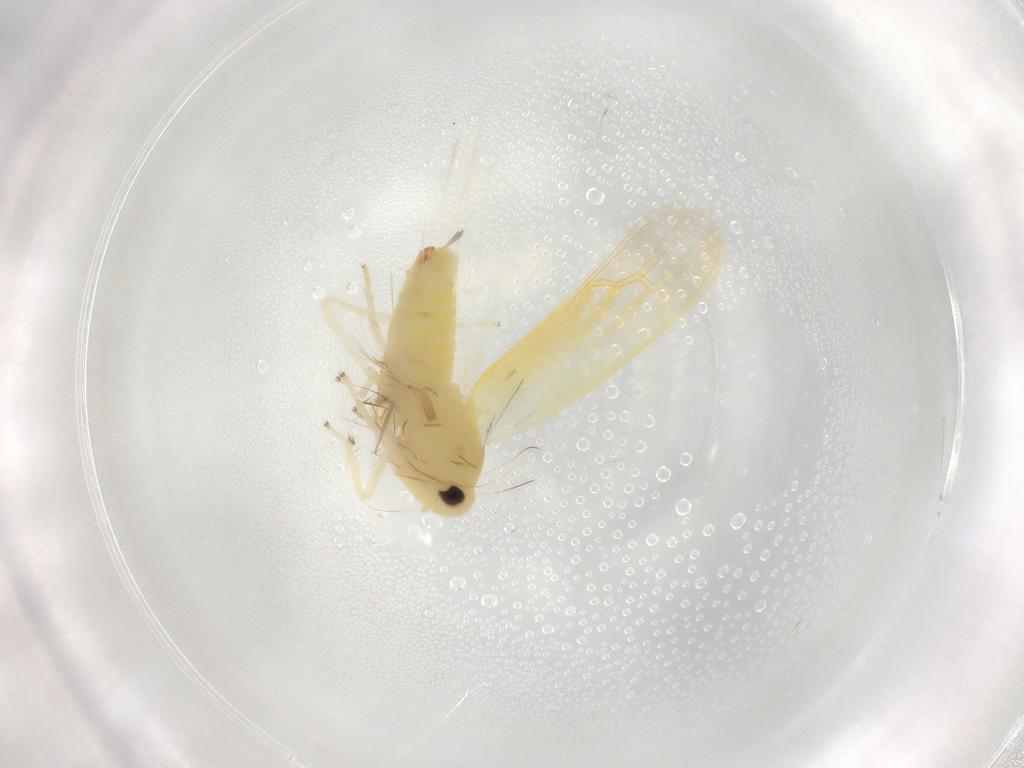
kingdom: Animalia
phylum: Arthropoda
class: Insecta
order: Hemiptera
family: Cicadellidae
